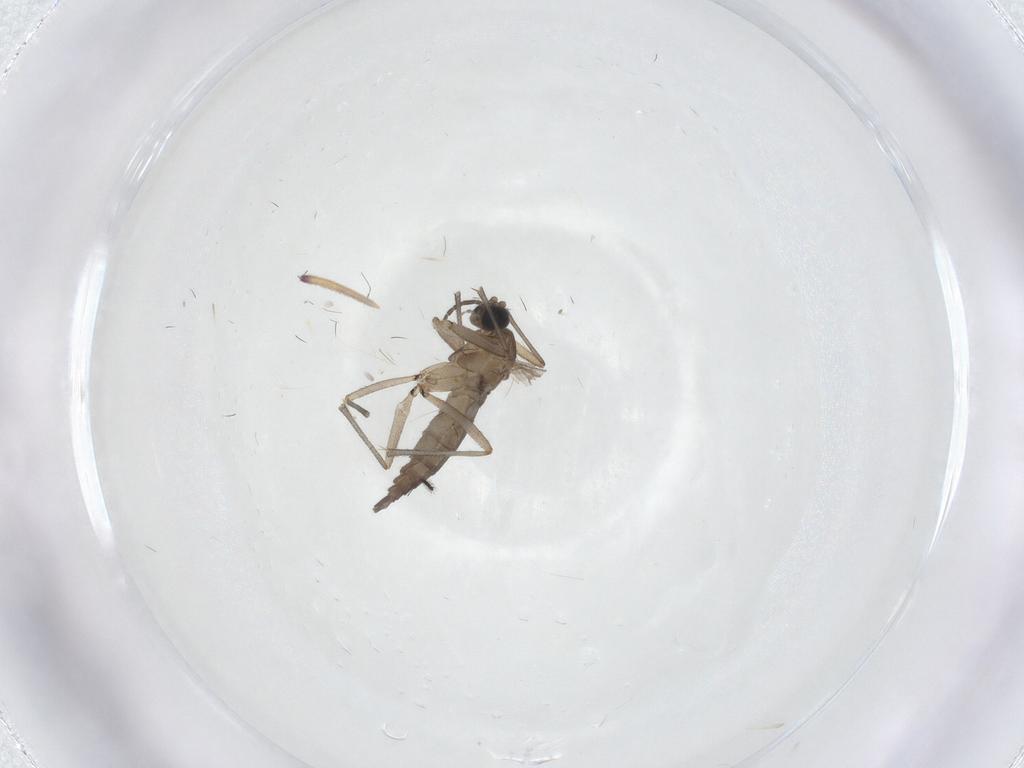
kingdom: Animalia
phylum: Arthropoda
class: Insecta
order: Diptera
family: Sciaridae
